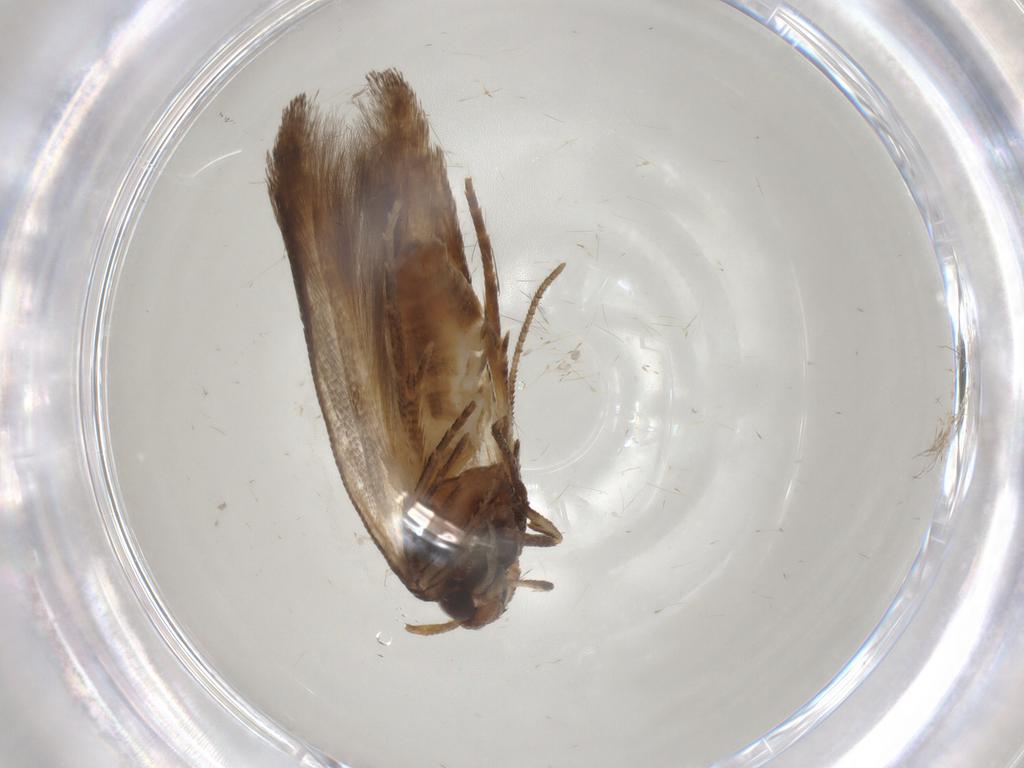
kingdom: Animalia
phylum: Arthropoda
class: Insecta
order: Lepidoptera
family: Cosmopterigidae
